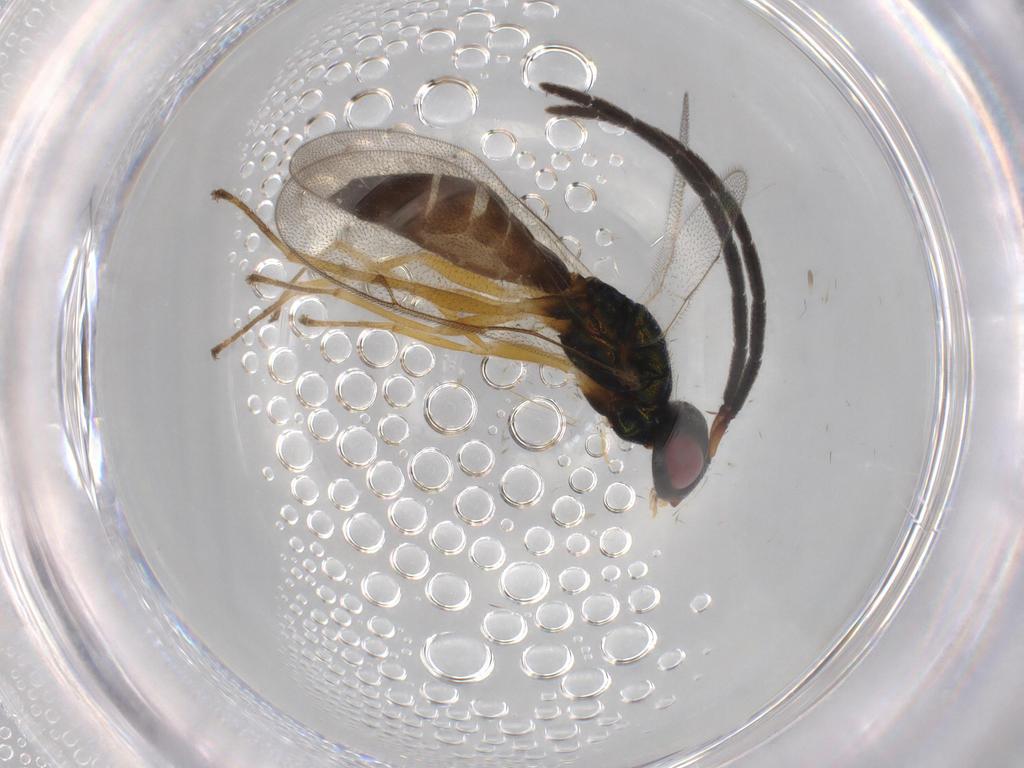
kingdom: Animalia
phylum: Arthropoda
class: Insecta
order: Hymenoptera
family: Pteromalidae
